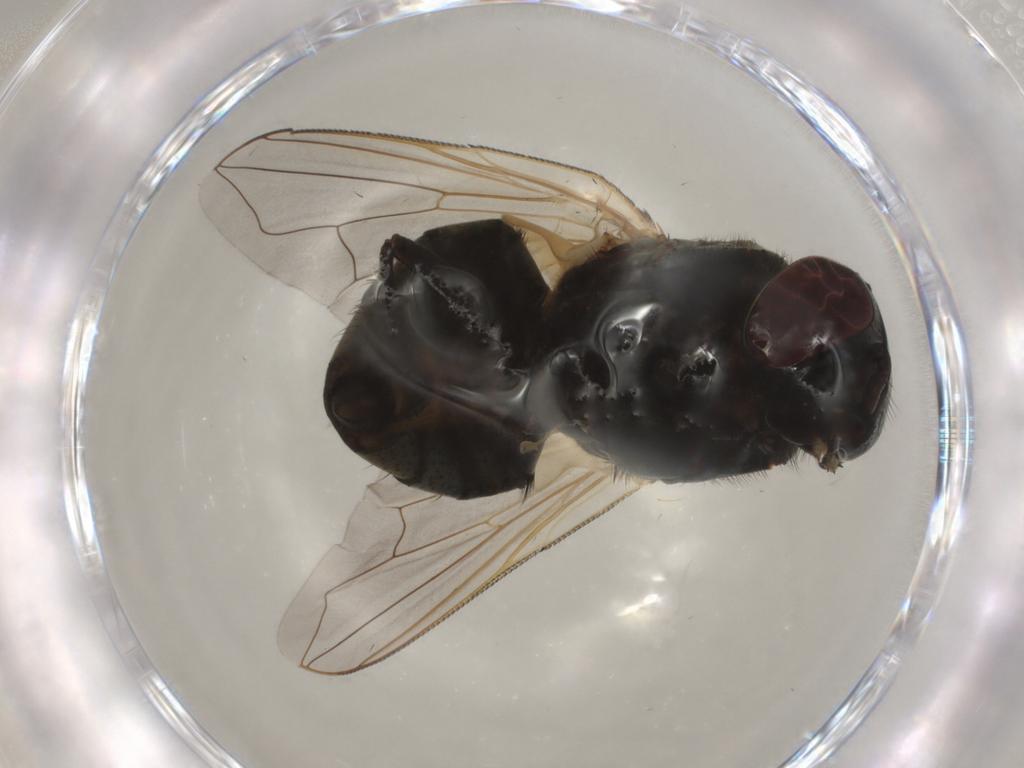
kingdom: Animalia
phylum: Arthropoda
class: Insecta
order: Diptera
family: Muscidae
